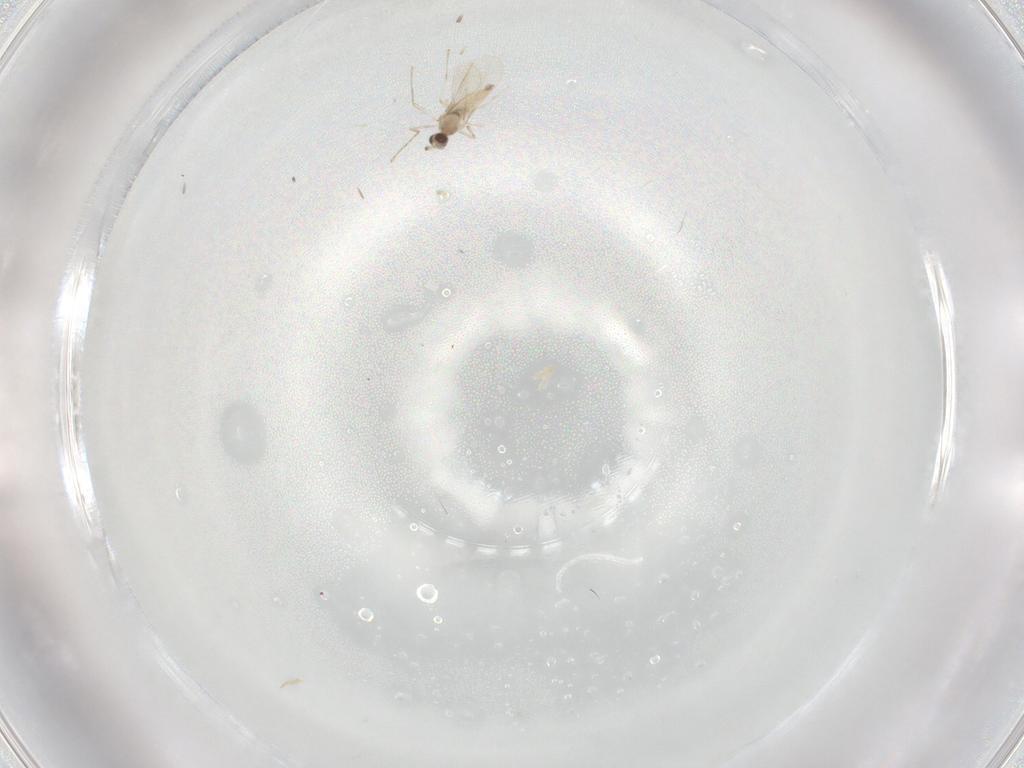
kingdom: Animalia
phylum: Arthropoda
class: Insecta
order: Diptera
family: Cecidomyiidae
